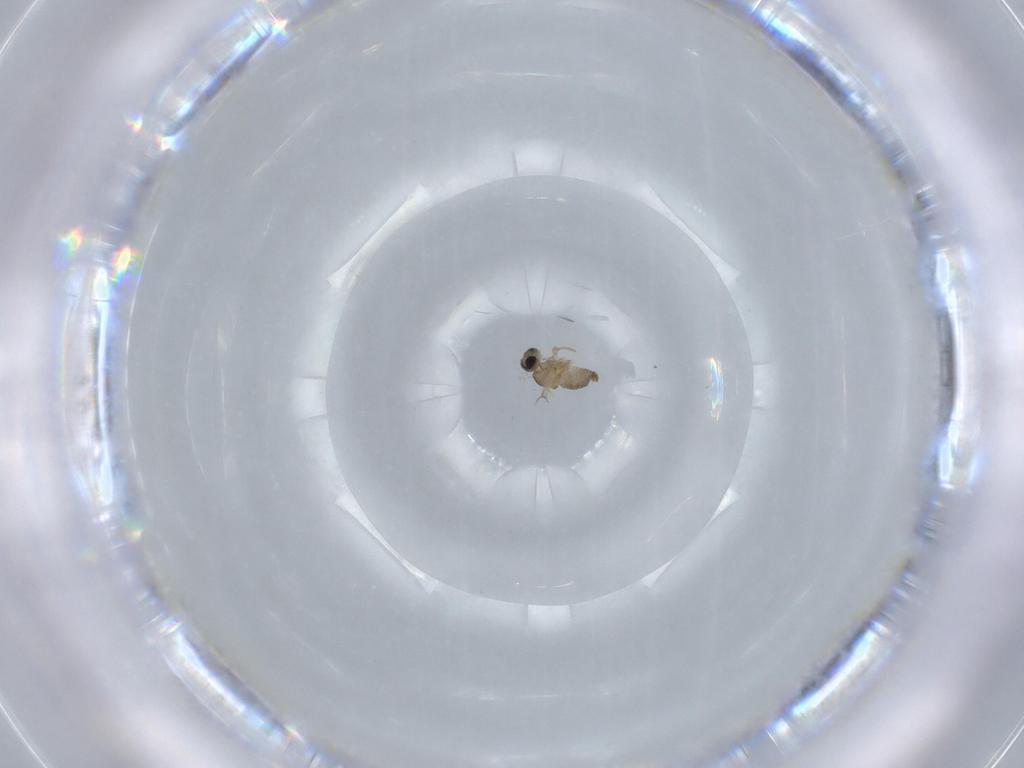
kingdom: Animalia
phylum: Arthropoda
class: Insecta
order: Diptera
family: Cecidomyiidae
